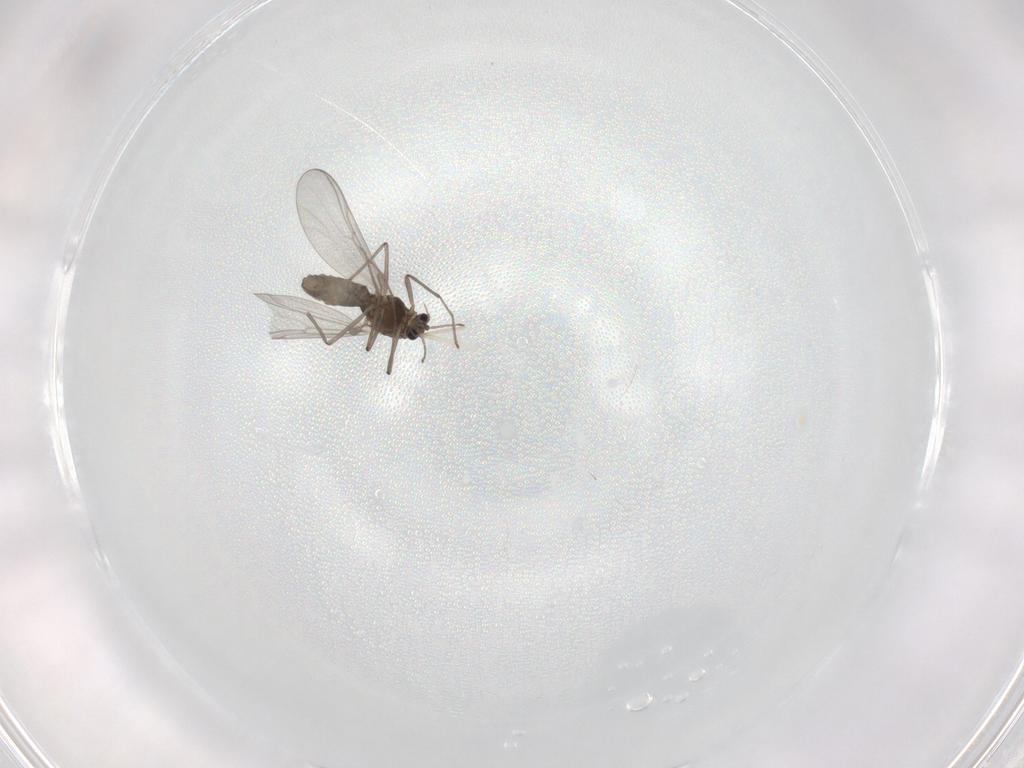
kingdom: Animalia
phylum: Arthropoda
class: Insecta
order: Diptera
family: Chironomidae
